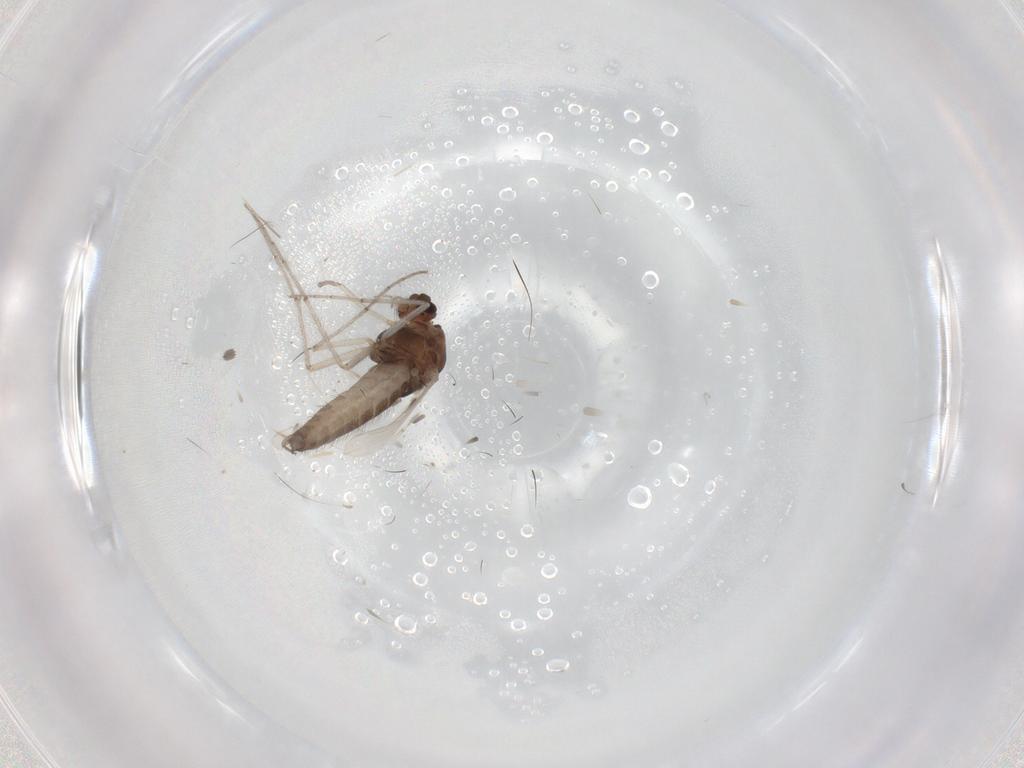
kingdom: Animalia
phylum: Arthropoda
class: Insecta
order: Diptera
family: Chironomidae
